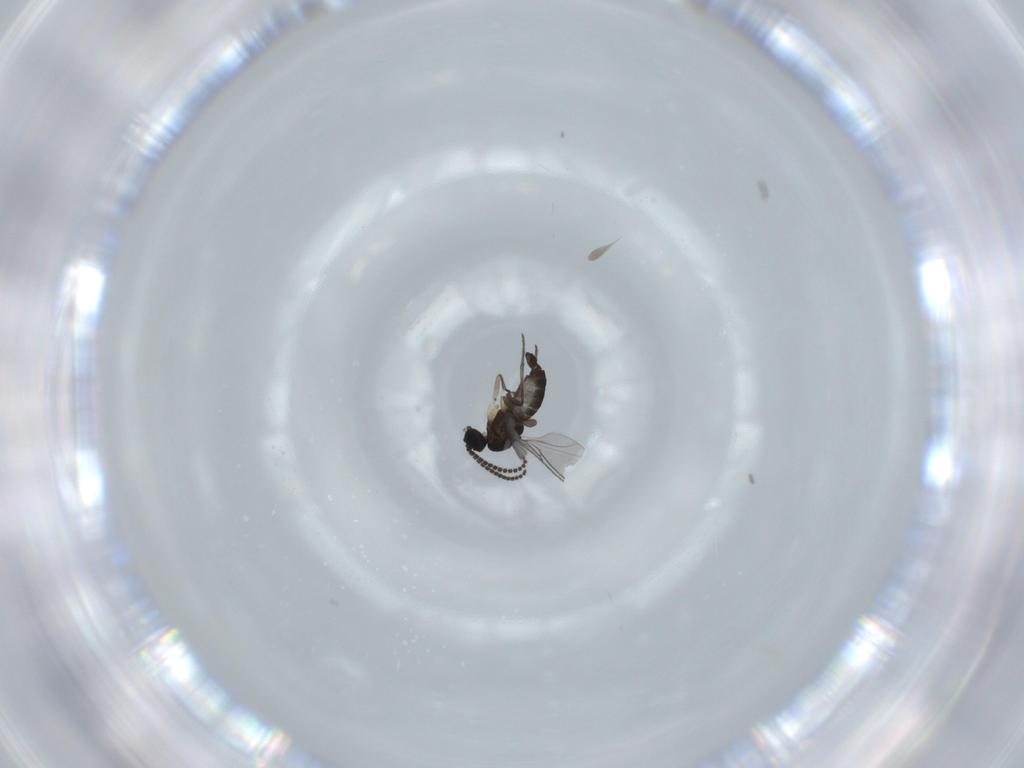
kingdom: Animalia
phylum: Arthropoda
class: Insecta
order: Diptera
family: Sciaridae
